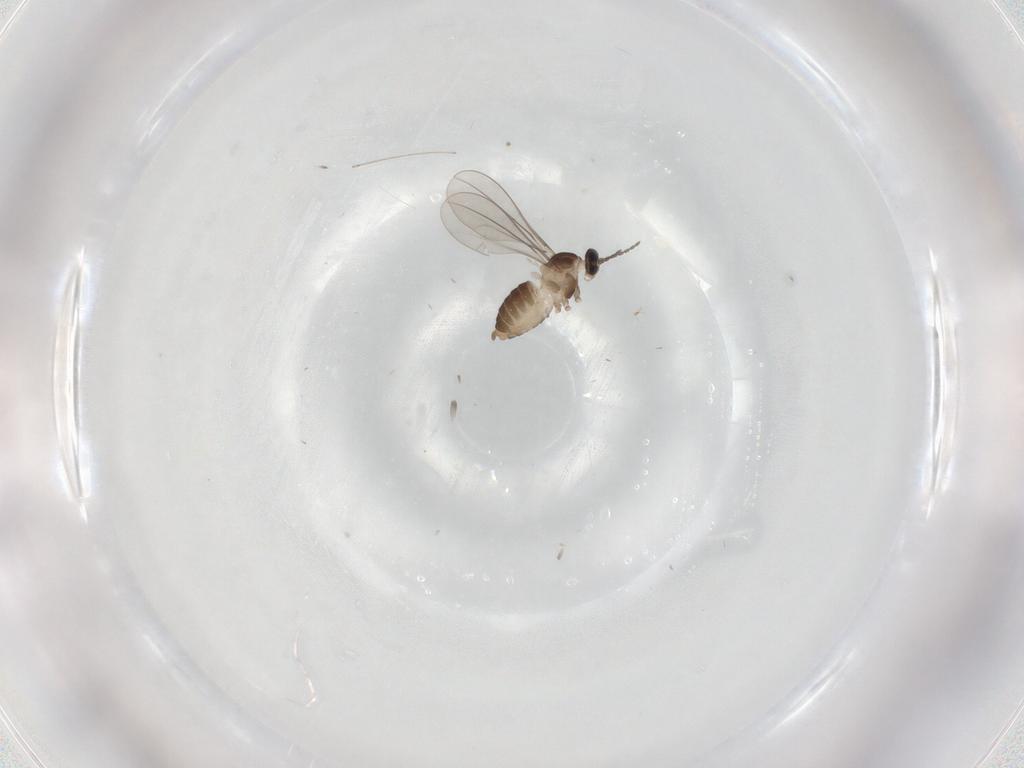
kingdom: Animalia
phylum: Arthropoda
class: Insecta
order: Diptera
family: Cecidomyiidae
